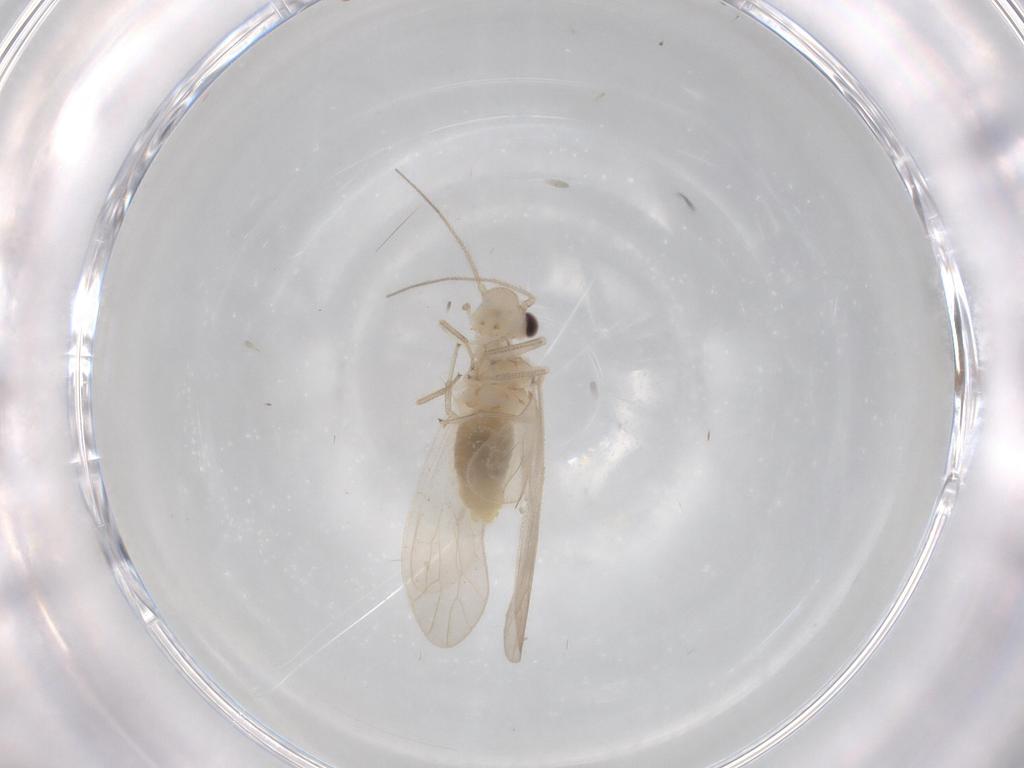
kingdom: Animalia
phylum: Arthropoda
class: Insecta
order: Psocodea
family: Caeciliusidae
